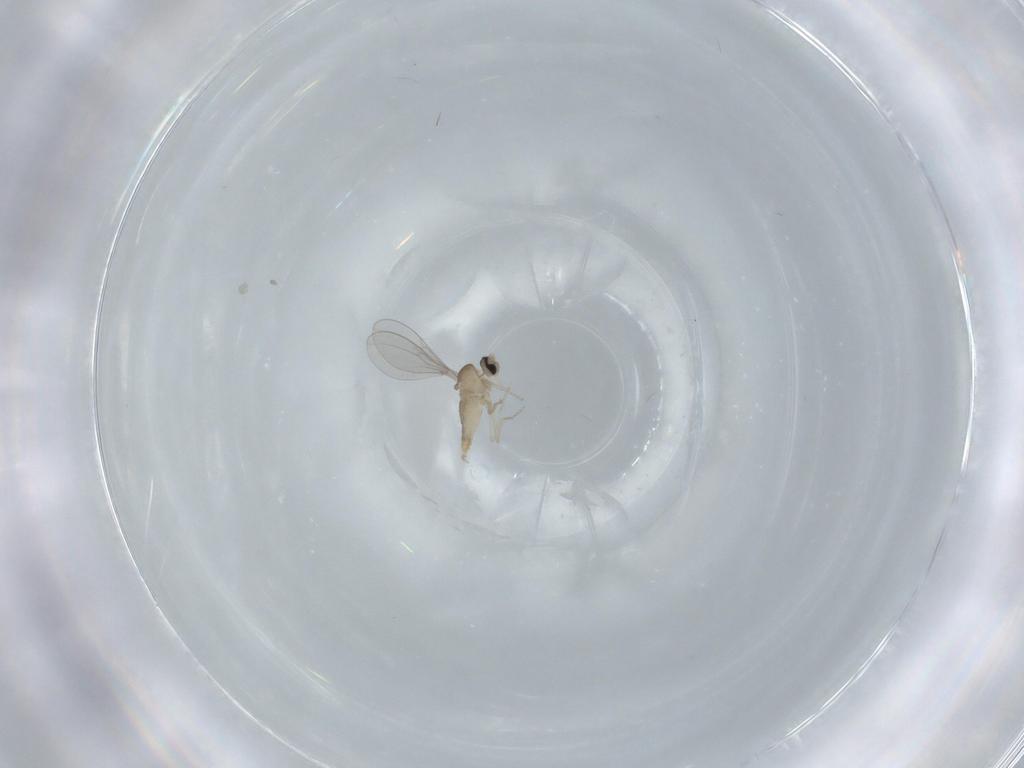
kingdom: Animalia
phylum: Arthropoda
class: Insecta
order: Diptera
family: Cecidomyiidae
